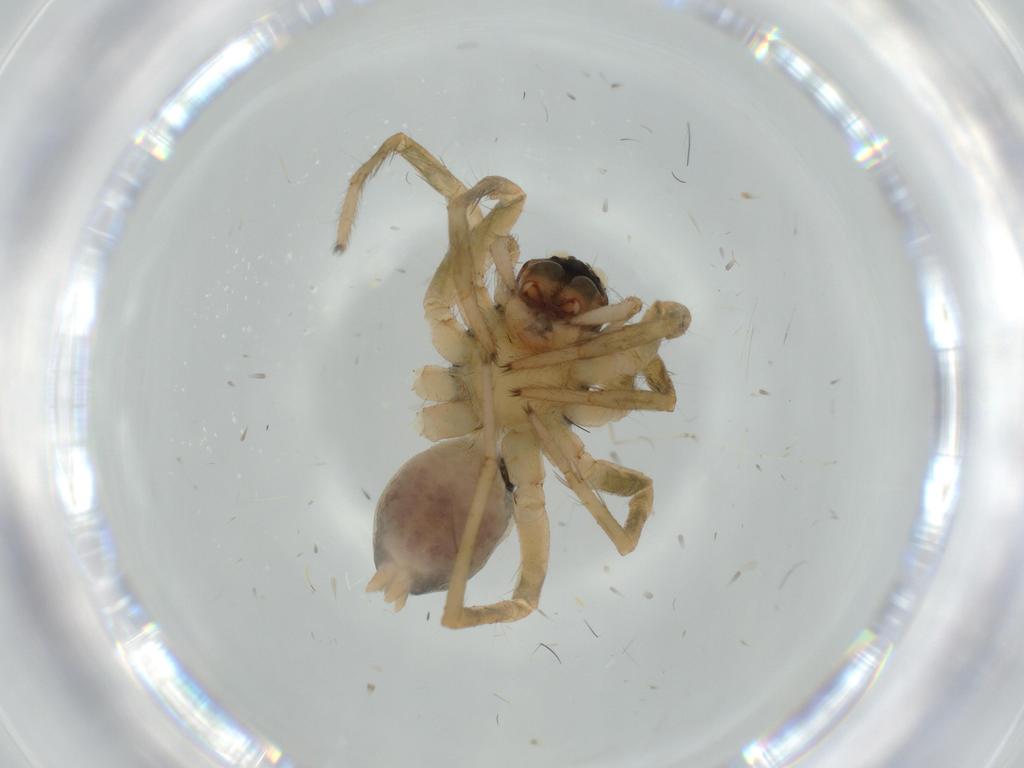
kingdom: Animalia
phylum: Arthropoda
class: Arachnida
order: Araneae
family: Lycosidae
